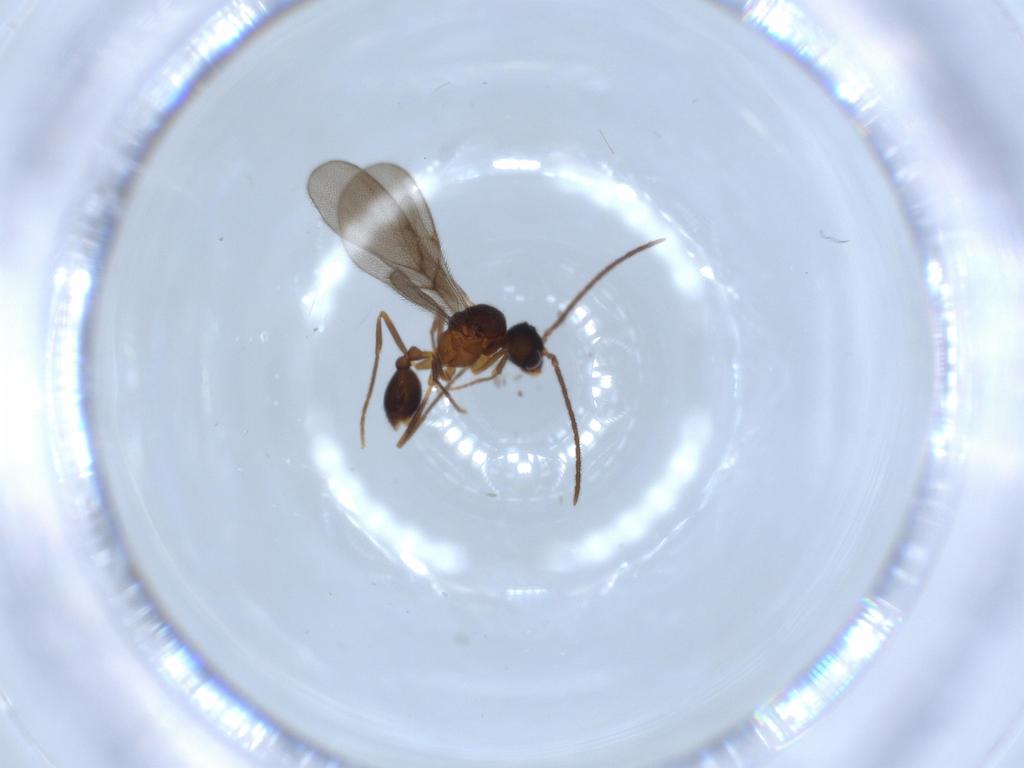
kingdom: Animalia
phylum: Arthropoda
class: Insecta
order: Hymenoptera
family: Formicidae
